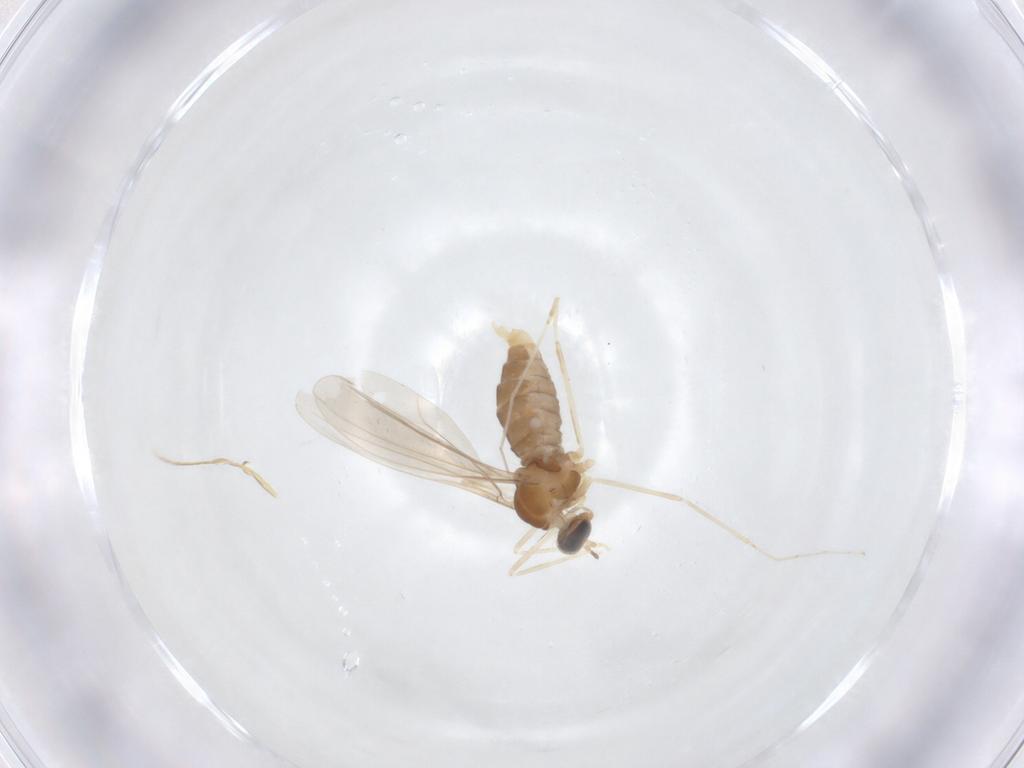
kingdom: Animalia
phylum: Arthropoda
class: Insecta
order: Diptera
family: Cecidomyiidae
